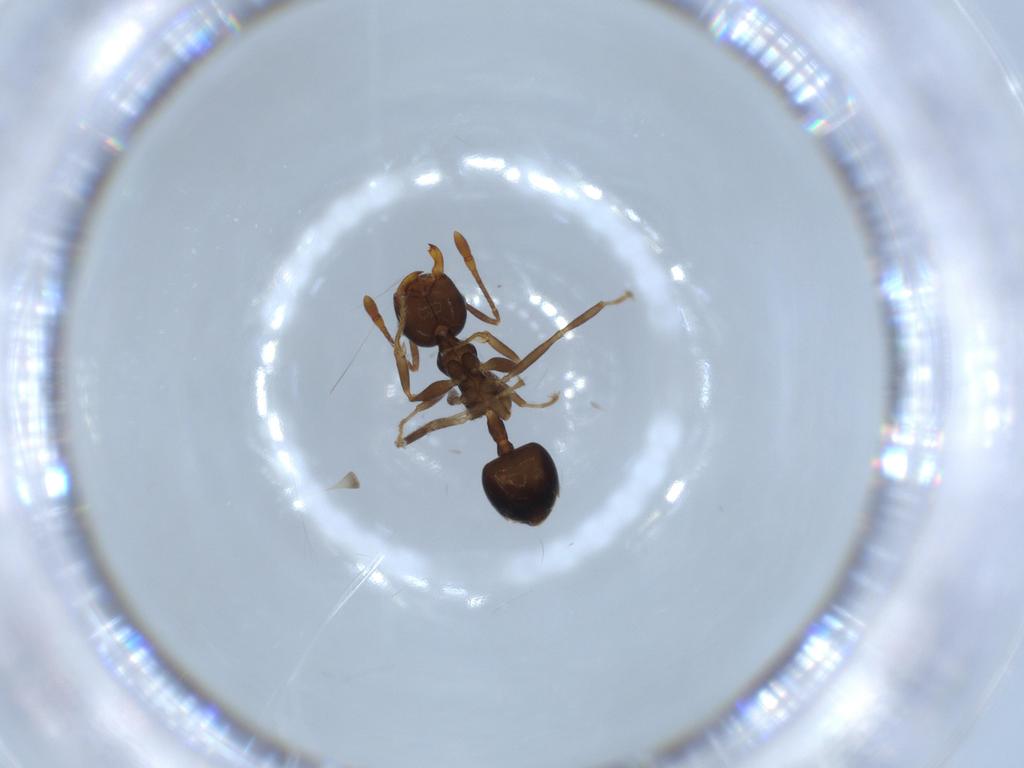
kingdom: Animalia
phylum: Arthropoda
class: Insecta
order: Hymenoptera
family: Formicidae
